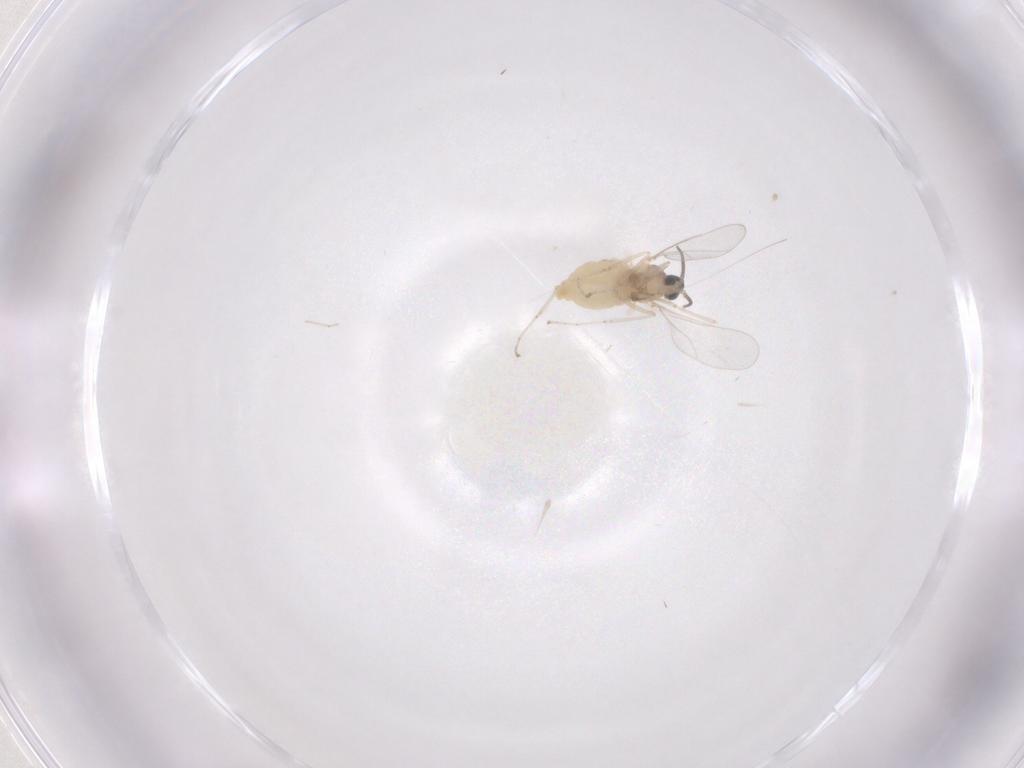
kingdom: Animalia
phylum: Arthropoda
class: Insecta
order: Diptera
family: Cecidomyiidae
